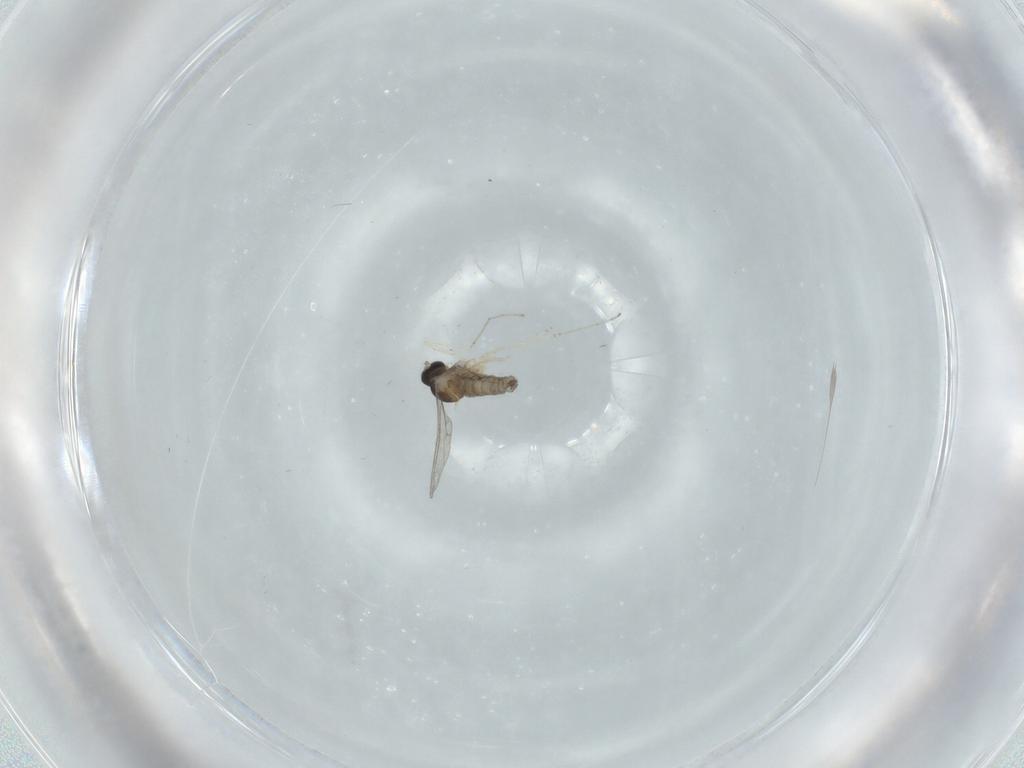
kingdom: Animalia
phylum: Arthropoda
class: Insecta
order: Diptera
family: Cecidomyiidae
